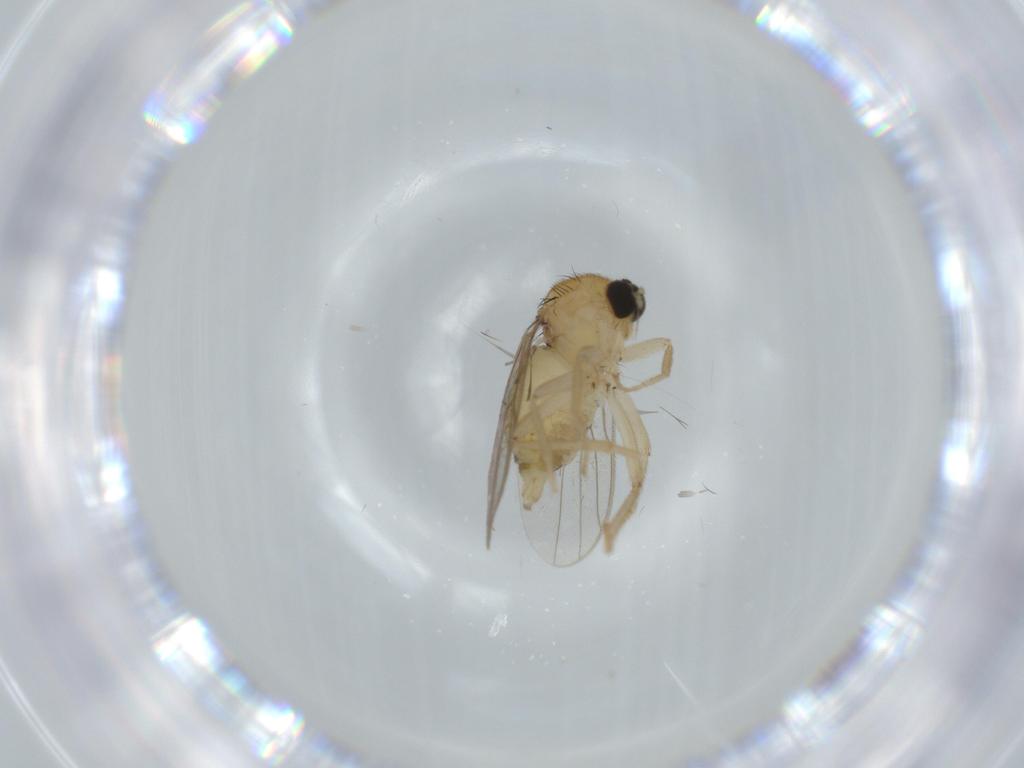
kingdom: Animalia
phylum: Arthropoda
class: Insecta
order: Diptera
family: Hybotidae
